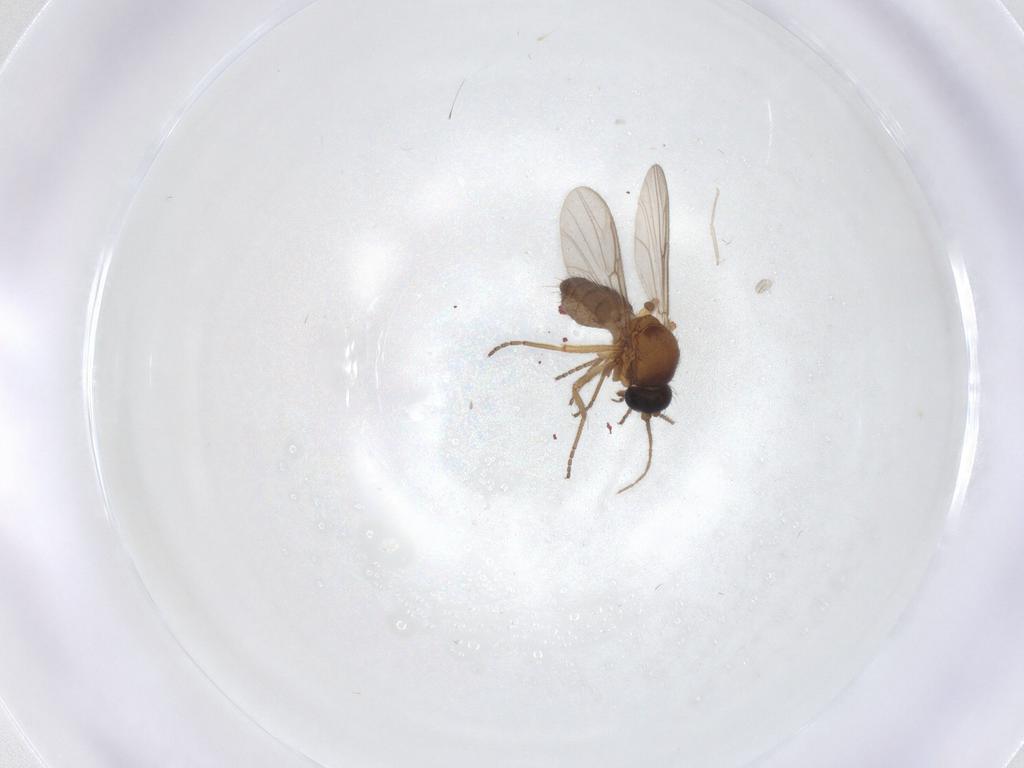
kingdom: Animalia
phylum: Arthropoda
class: Insecta
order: Diptera
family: Ceratopogonidae
